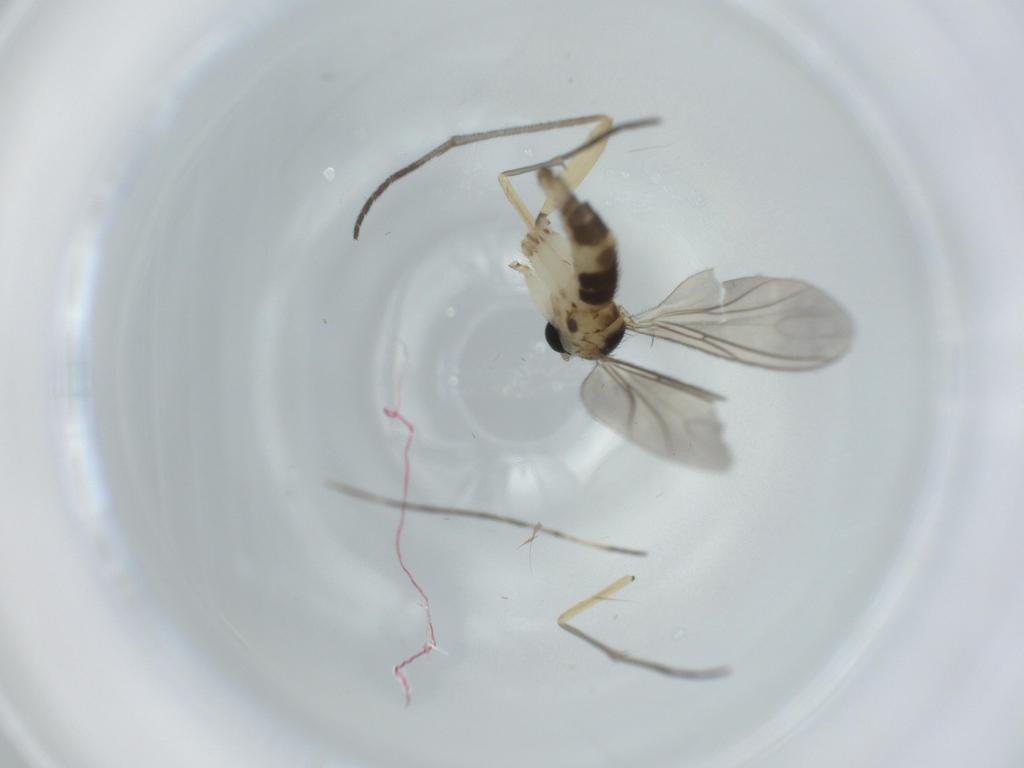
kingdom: Animalia
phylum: Arthropoda
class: Insecta
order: Diptera
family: Sciaridae
